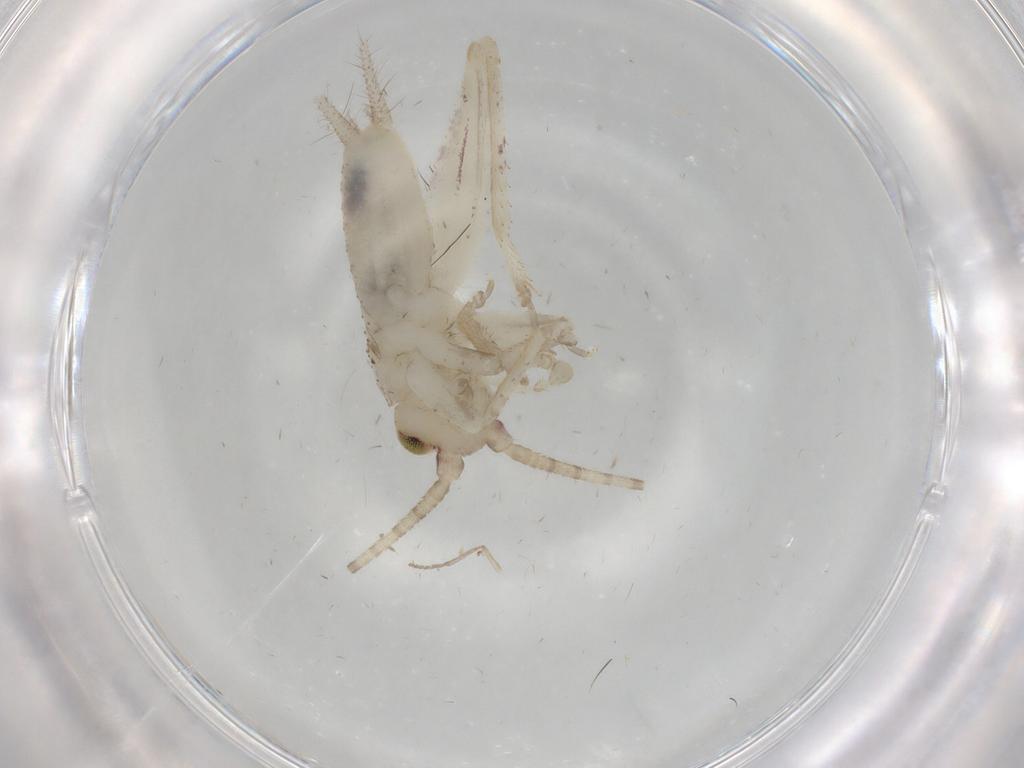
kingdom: Animalia
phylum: Arthropoda
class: Insecta
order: Orthoptera
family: Gryllidae
